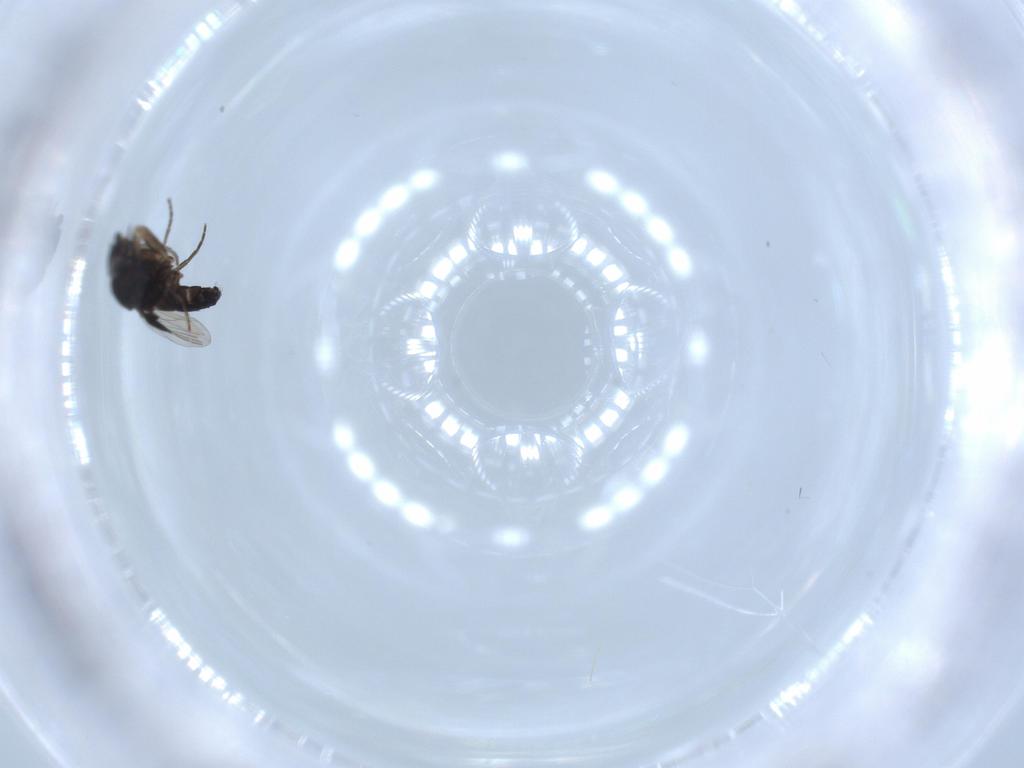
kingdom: Animalia
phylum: Arthropoda
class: Insecta
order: Diptera
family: Phoridae
